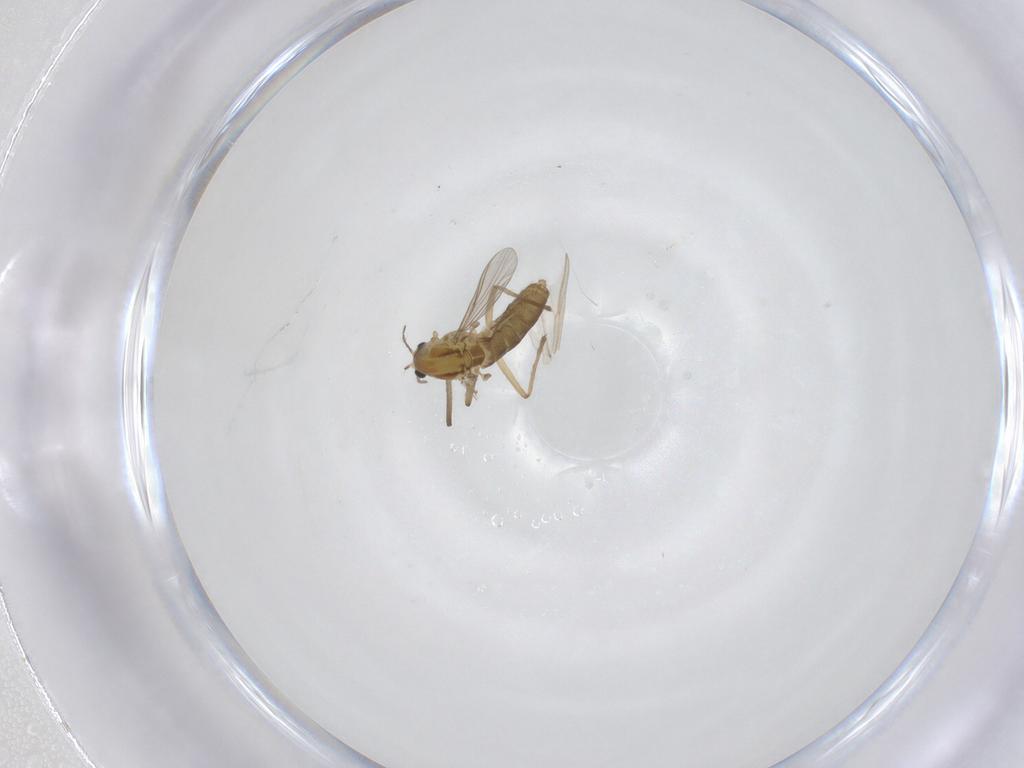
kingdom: Animalia
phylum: Arthropoda
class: Insecta
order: Diptera
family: Chironomidae
